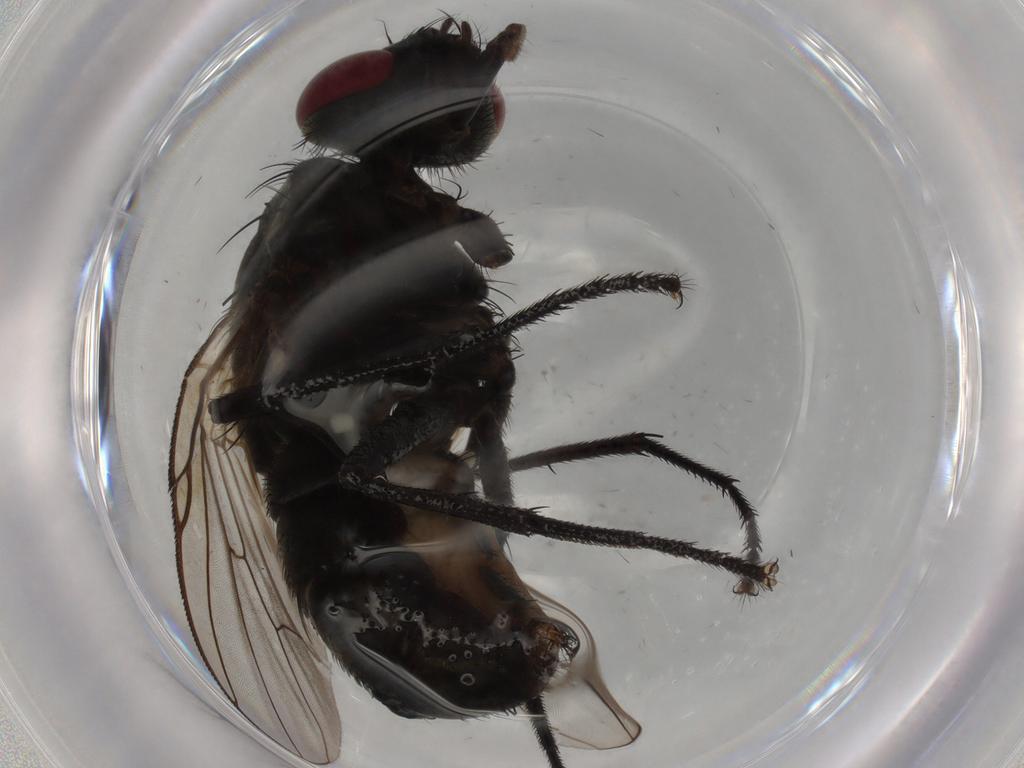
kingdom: Animalia
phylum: Arthropoda
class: Insecta
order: Diptera
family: Muscidae
